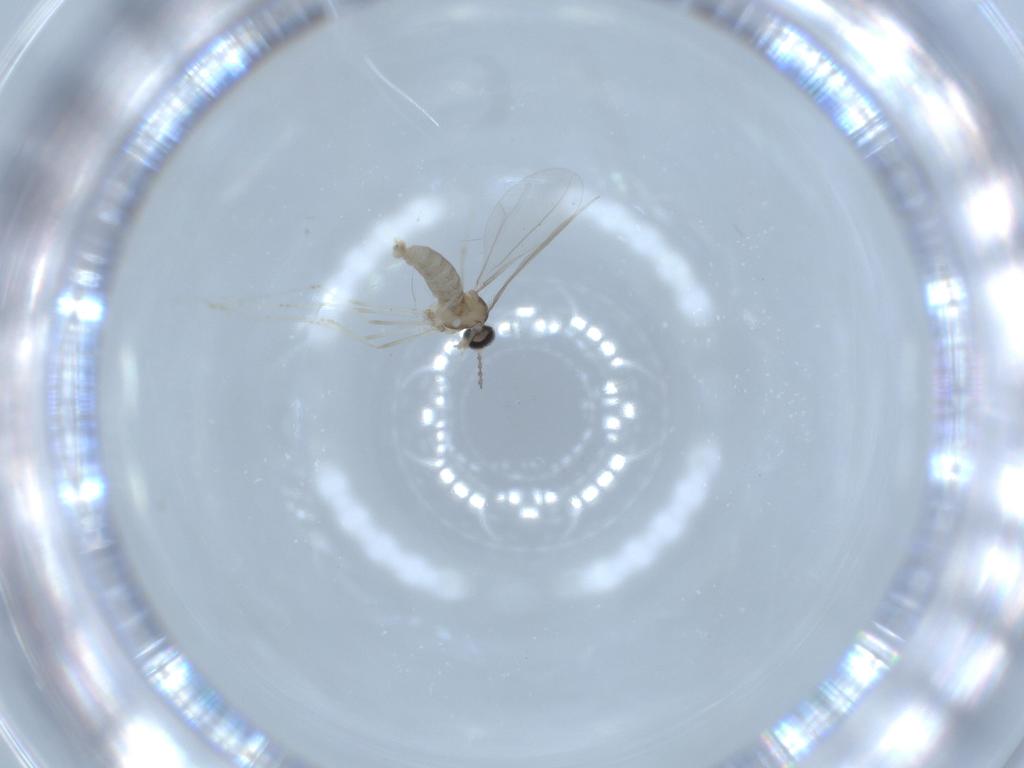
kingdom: Animalia
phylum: Arthropoda
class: Insecta
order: Diptera
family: Cecidomyiidae
